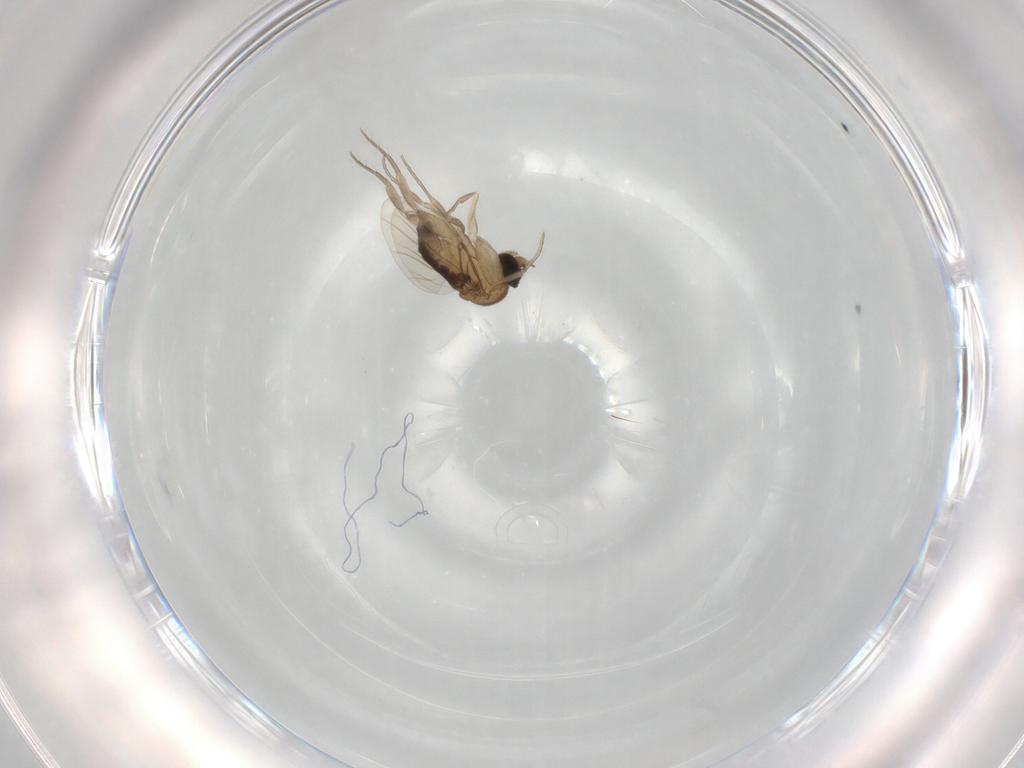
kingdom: Animalia
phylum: Arthropoda
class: Insecta
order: Diptera
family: Phoridae
